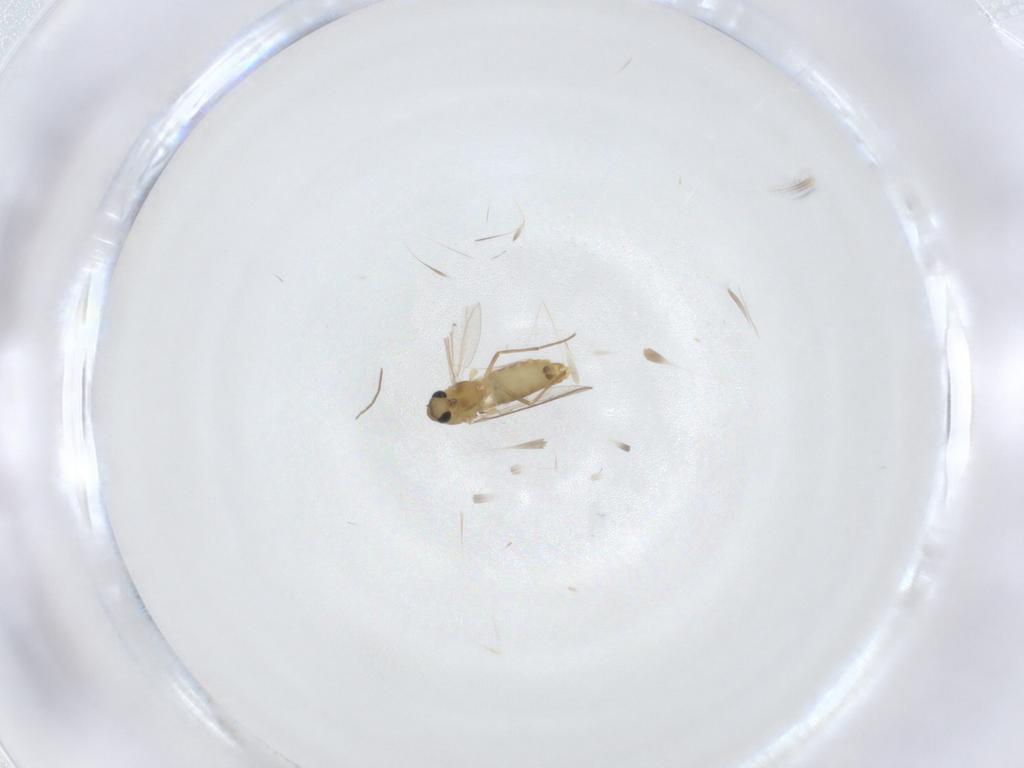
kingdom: Animalia
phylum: Arthropoda
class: Insecta
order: Diptera
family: Chironomidae
